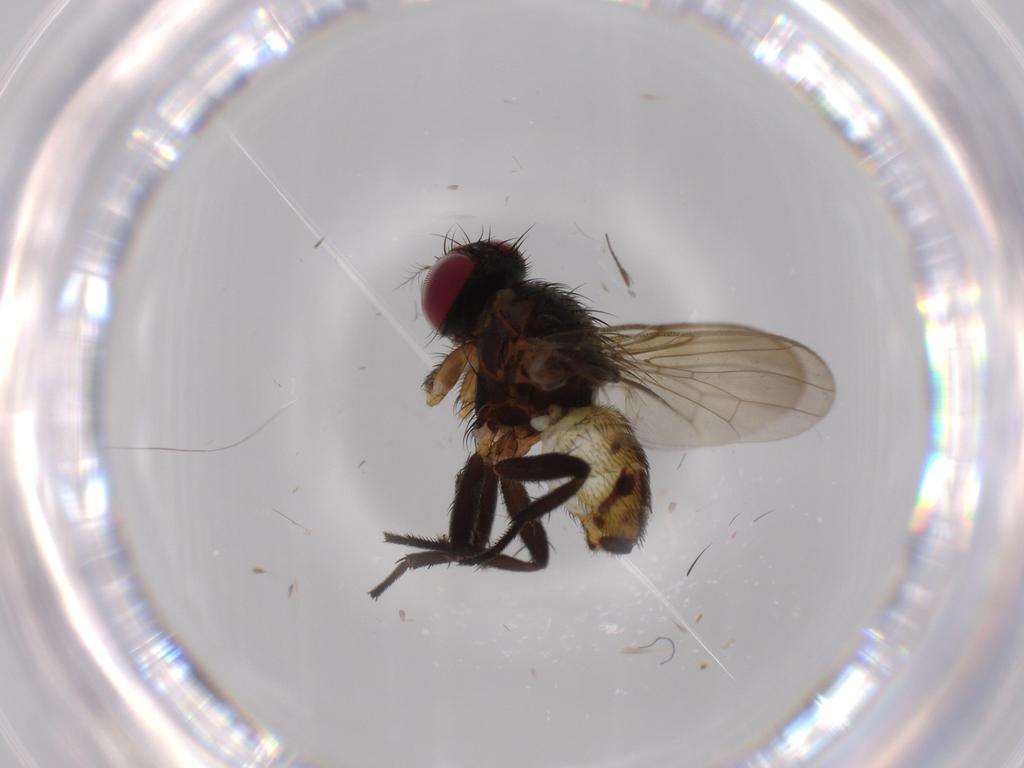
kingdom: Animalia
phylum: Arthropoda
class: Insecta
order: Diptera
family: Anthomyiidae
